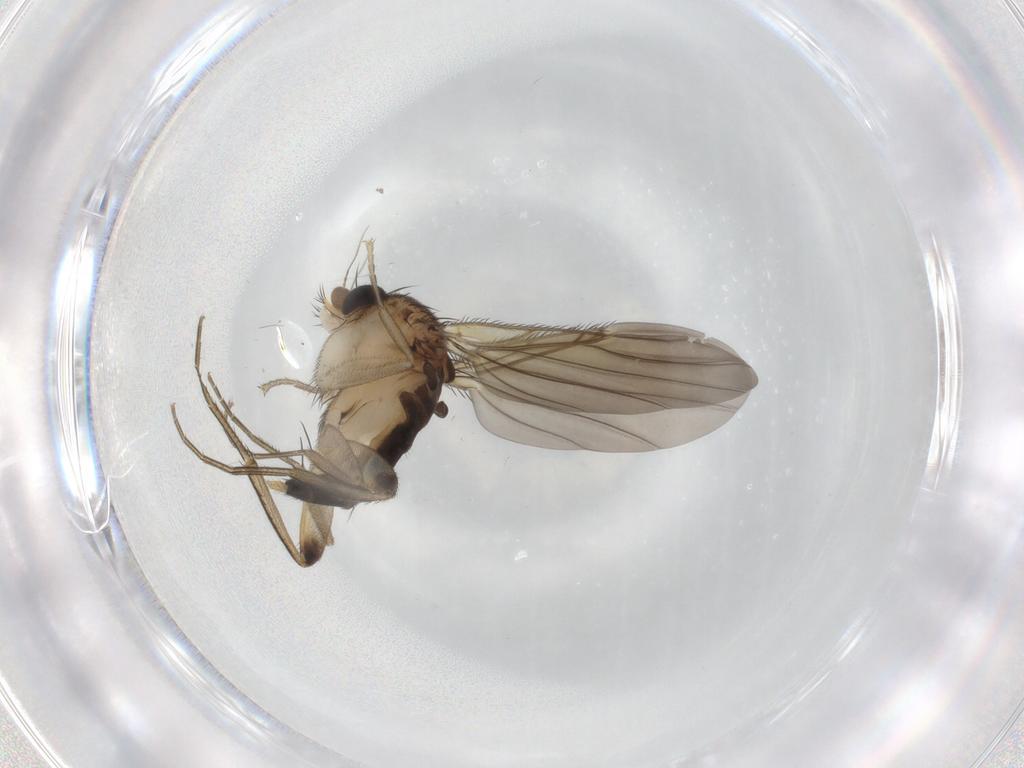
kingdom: Animalia
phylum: Arthropoda
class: Insecta
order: Diptera
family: Phoridae
